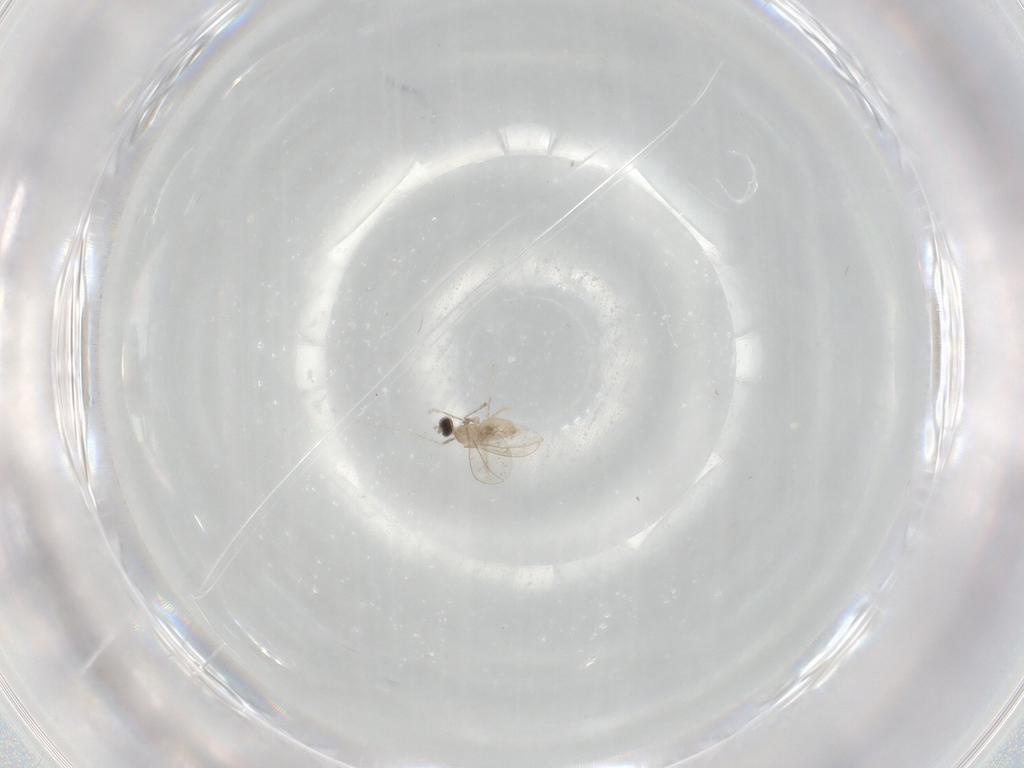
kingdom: Animalia
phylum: Arthropoda
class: Insecta
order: Diptera
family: Cecidomyiidae
